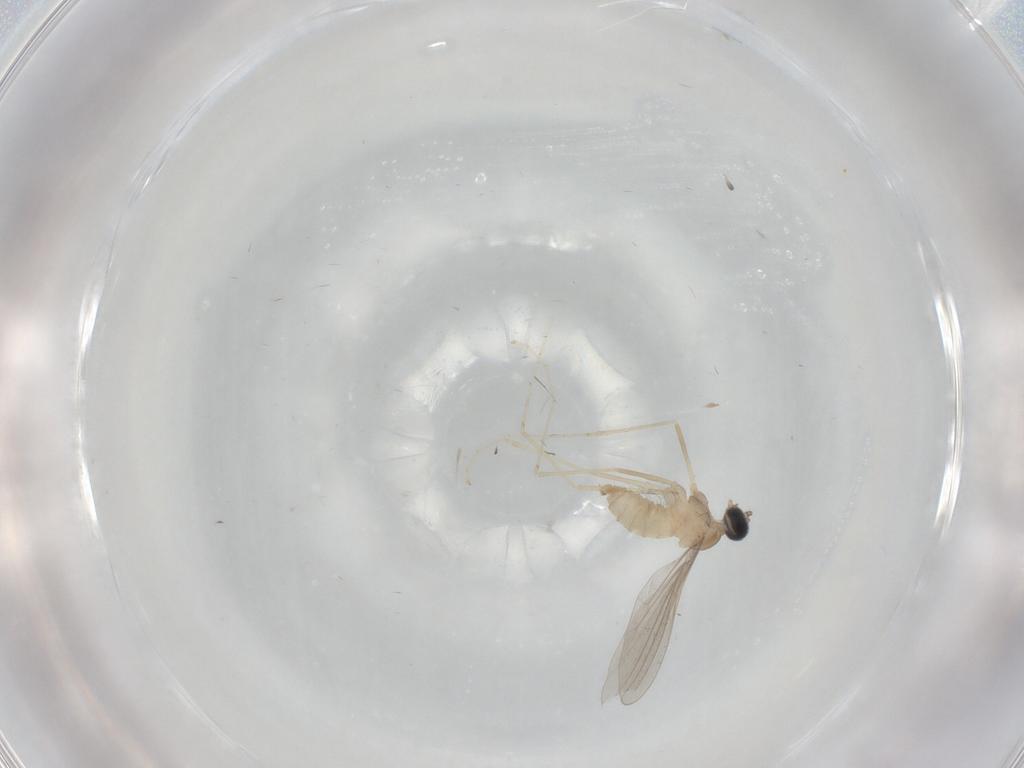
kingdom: Animalia
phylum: Arthropoda
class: Insecta
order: Diptera
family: Cecidomyiidae
